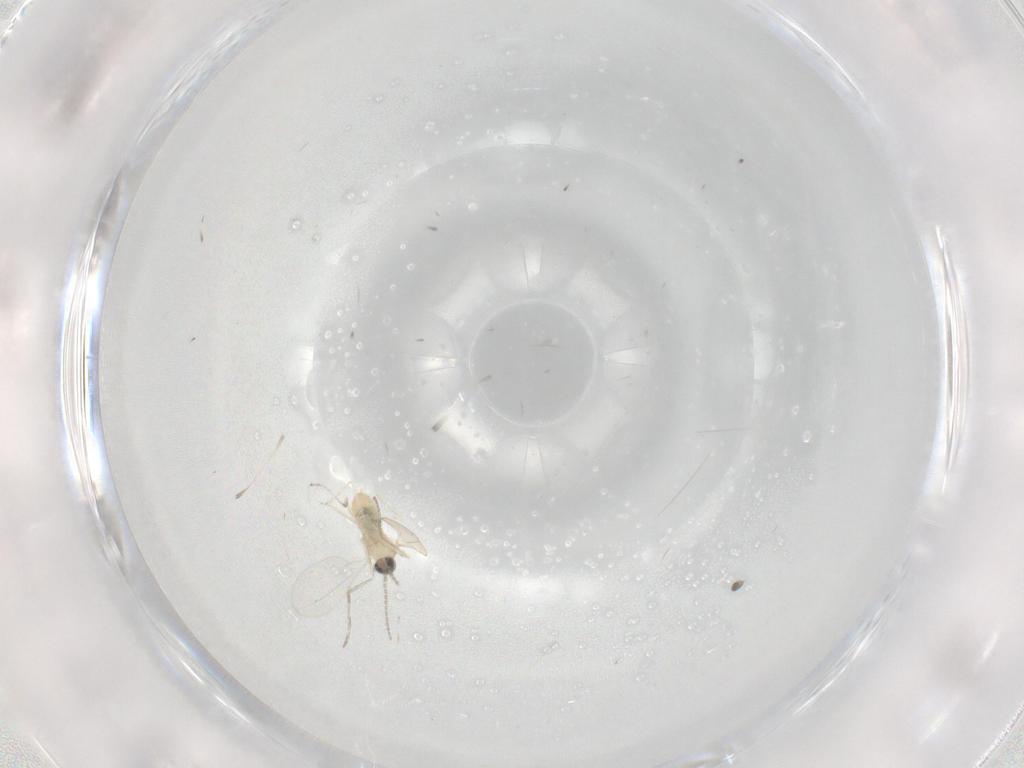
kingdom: Animalia
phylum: Arthropoda
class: Insecta
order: Diptera
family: Cecidomyiidae
